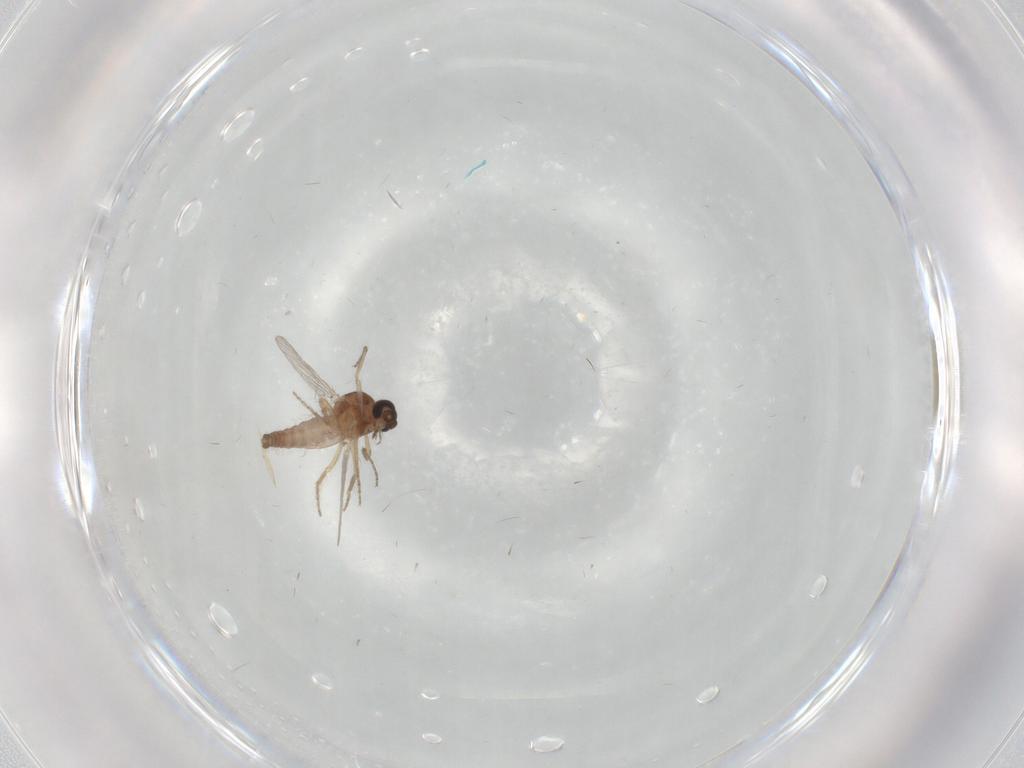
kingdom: Animalia
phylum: Arthropoda
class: Insecta
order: Diptera
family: Ceratopogonidae
